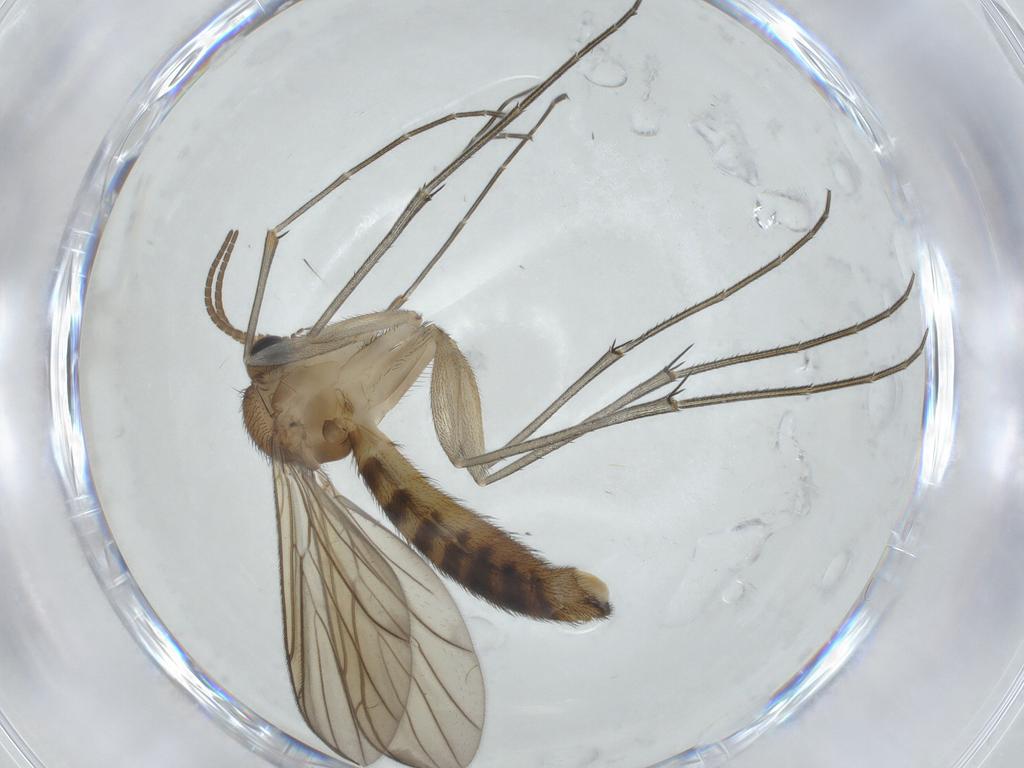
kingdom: Animalia
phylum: Arthropoda
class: Insecta
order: Diptera
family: Keroplatidae
